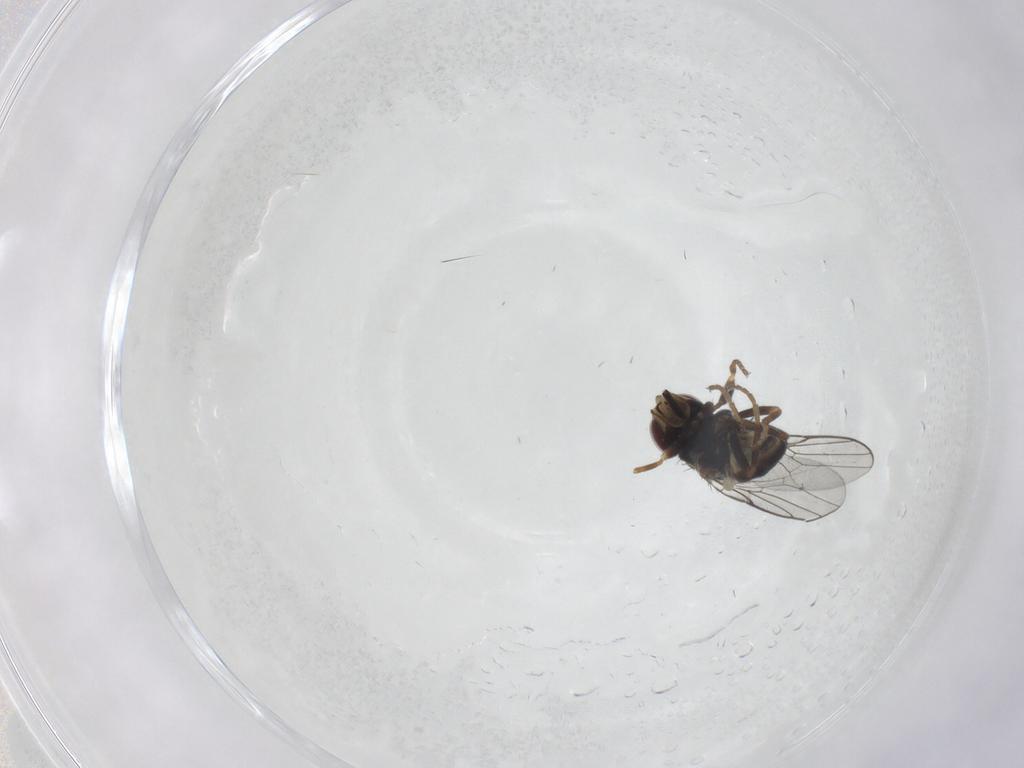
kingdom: Animalia
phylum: Arthropoda
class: Insecta
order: Diptera
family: Chloropidae
